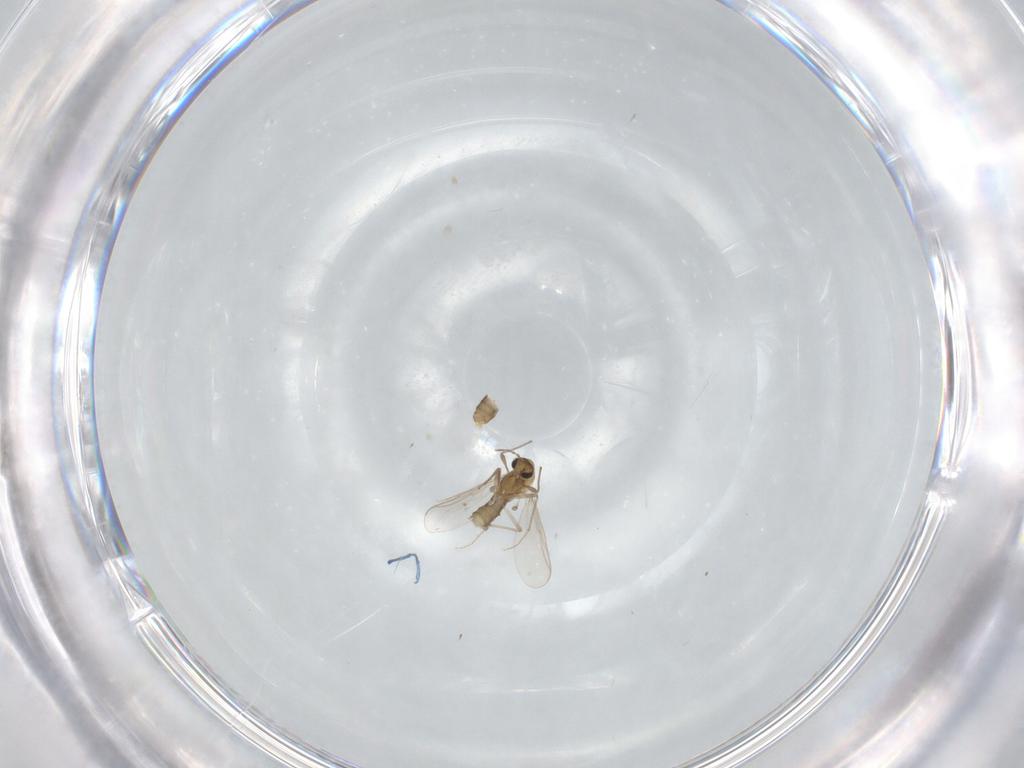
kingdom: Animalia
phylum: Arthropoda
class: Insecta
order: Diptera
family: Chironomidae
